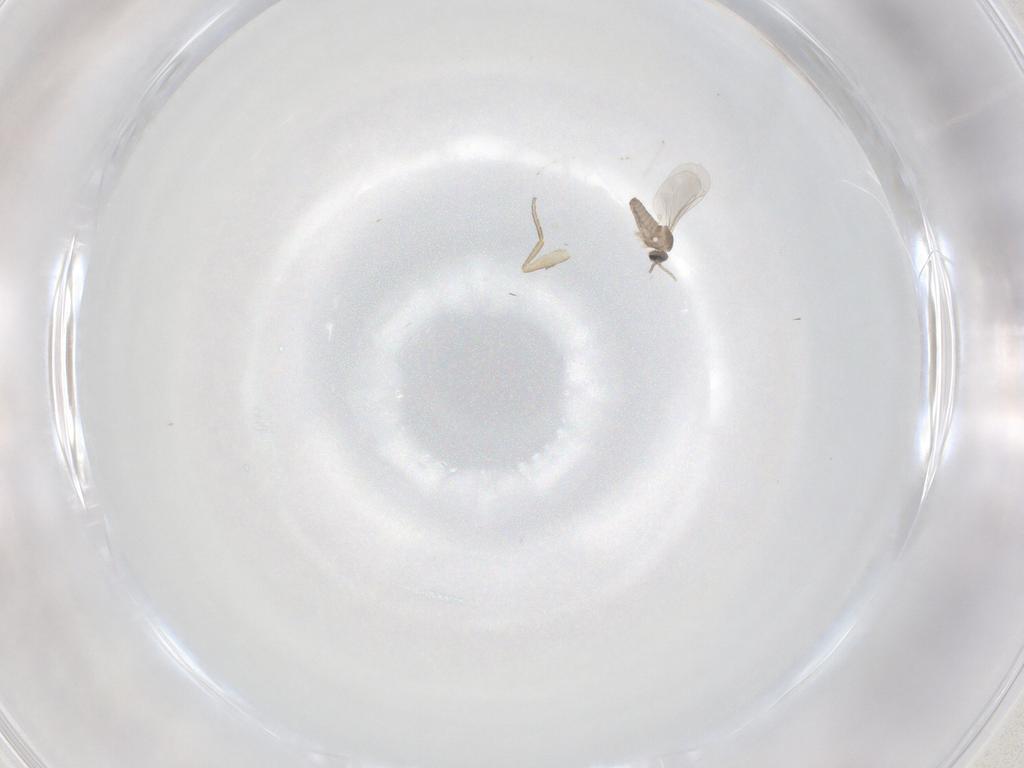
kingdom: Animalia
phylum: Arthropoda
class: Insecta
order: Diptera
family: Cecidomyiidae
